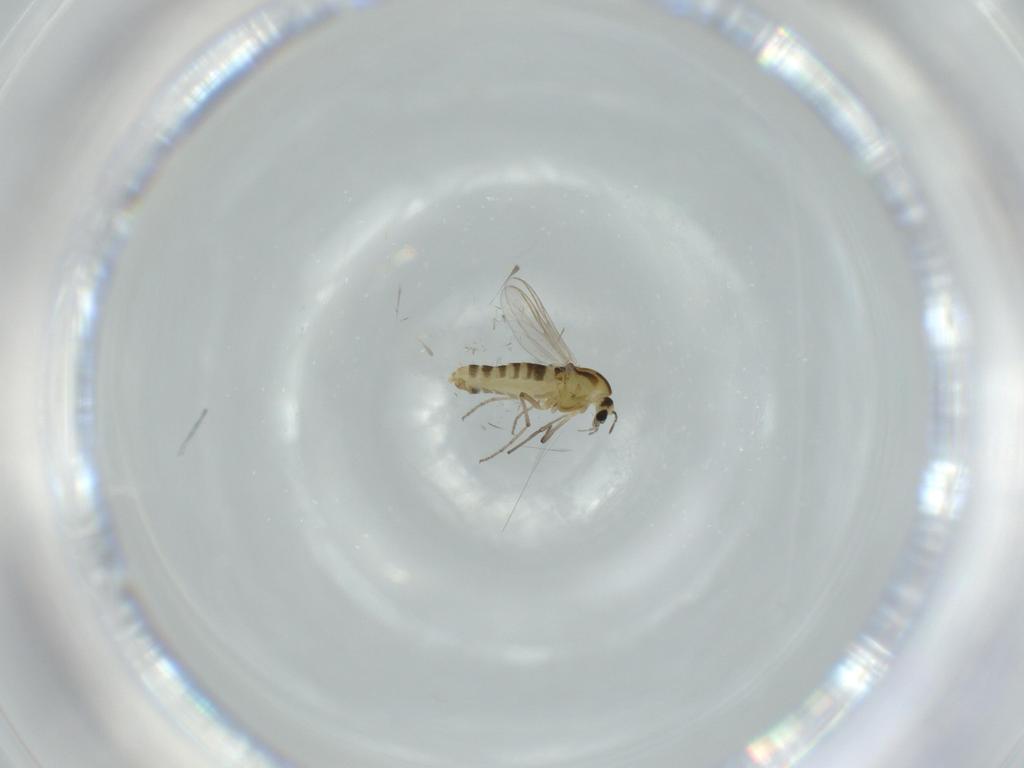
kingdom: Animalia
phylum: Arthropoda
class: Insecta
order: Diptera
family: Chironomidae
